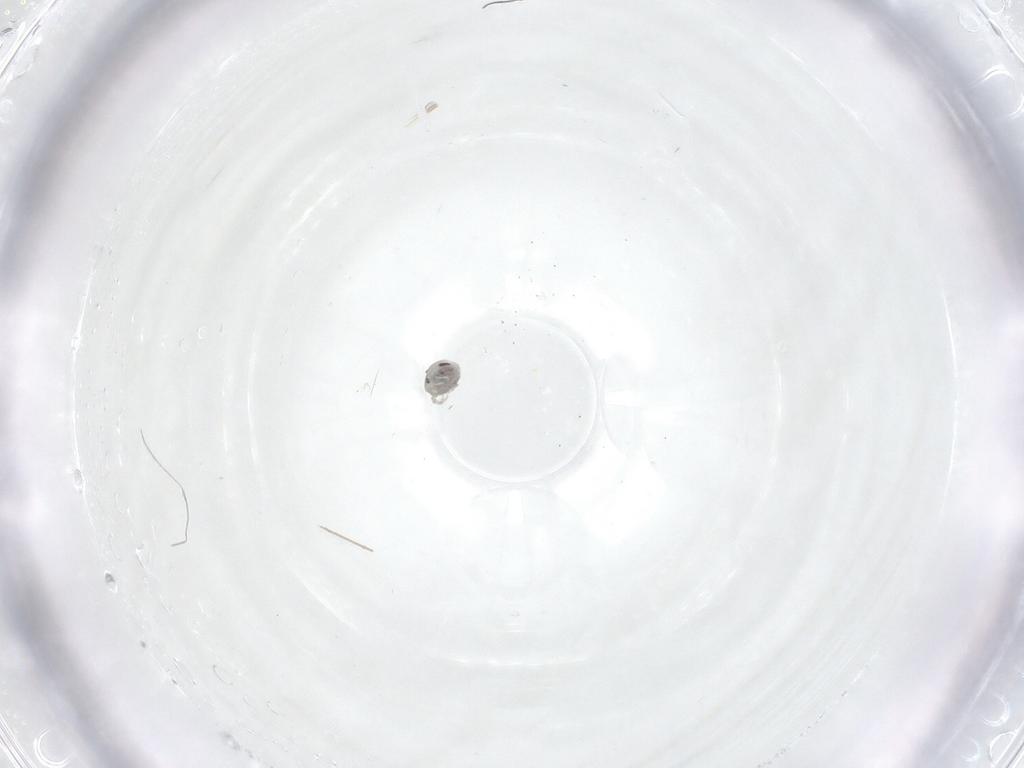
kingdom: Animalia
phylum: Arthropoda
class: Arachnida
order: Trombidiformes
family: Pionidae
